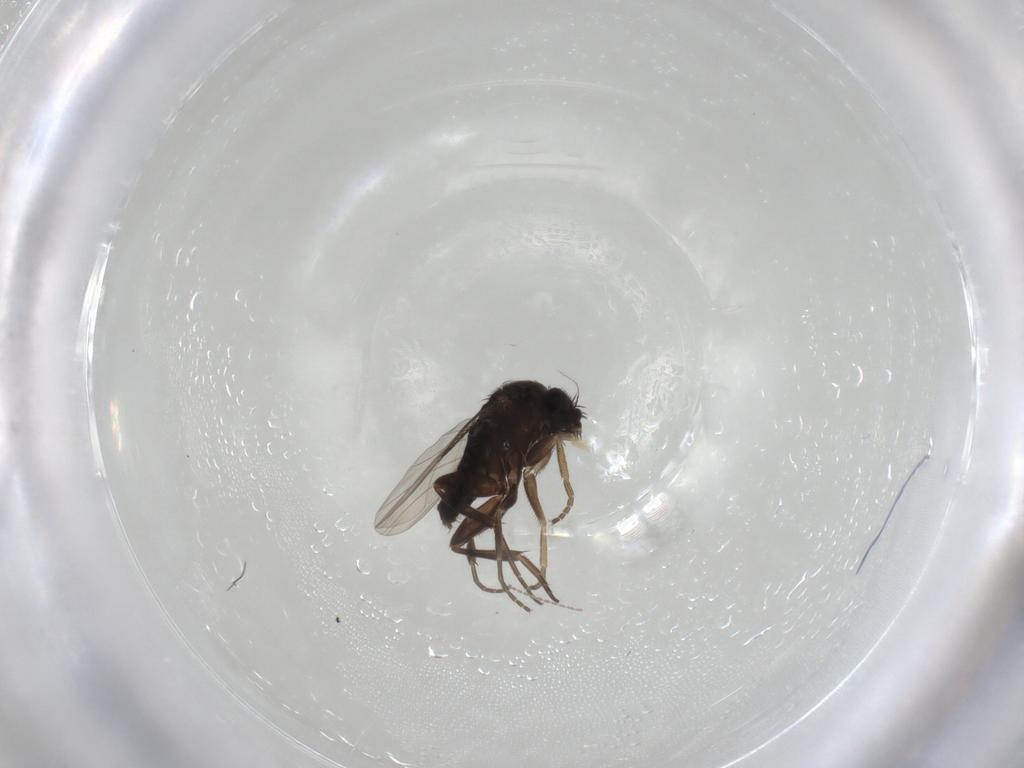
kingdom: Animalia
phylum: Arthropoda
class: Insecta
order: Diptera
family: Phoridae
